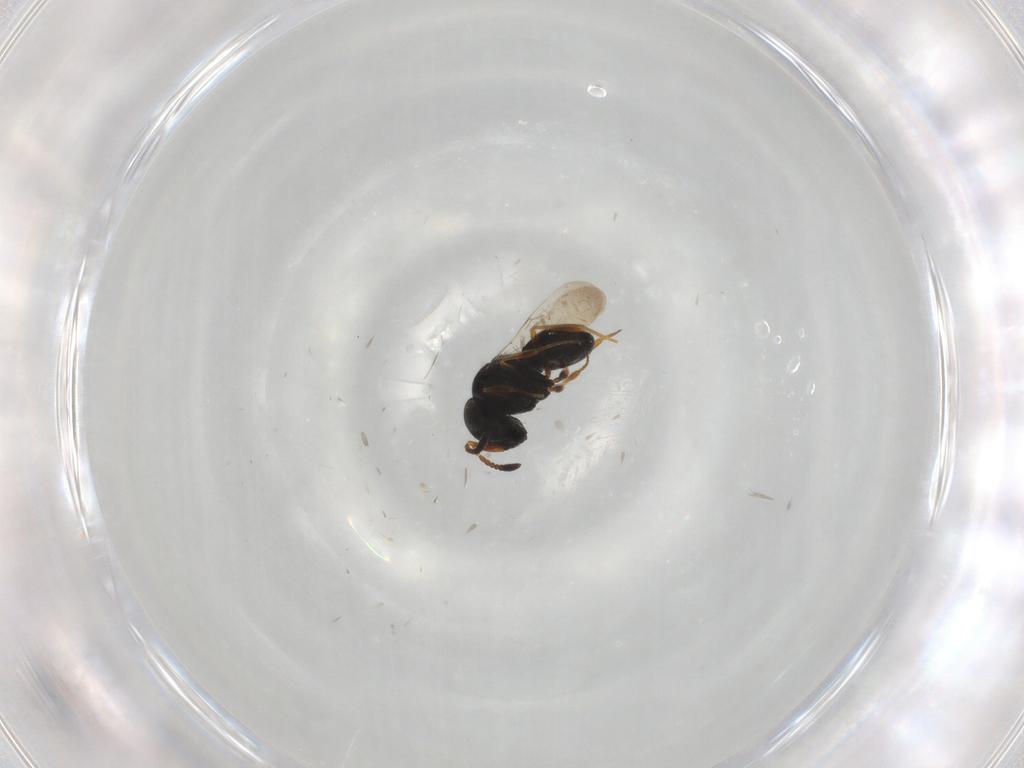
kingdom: Animalia
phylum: Arthropoda
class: Insecta
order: Hymenoptera
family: Scelionidae
